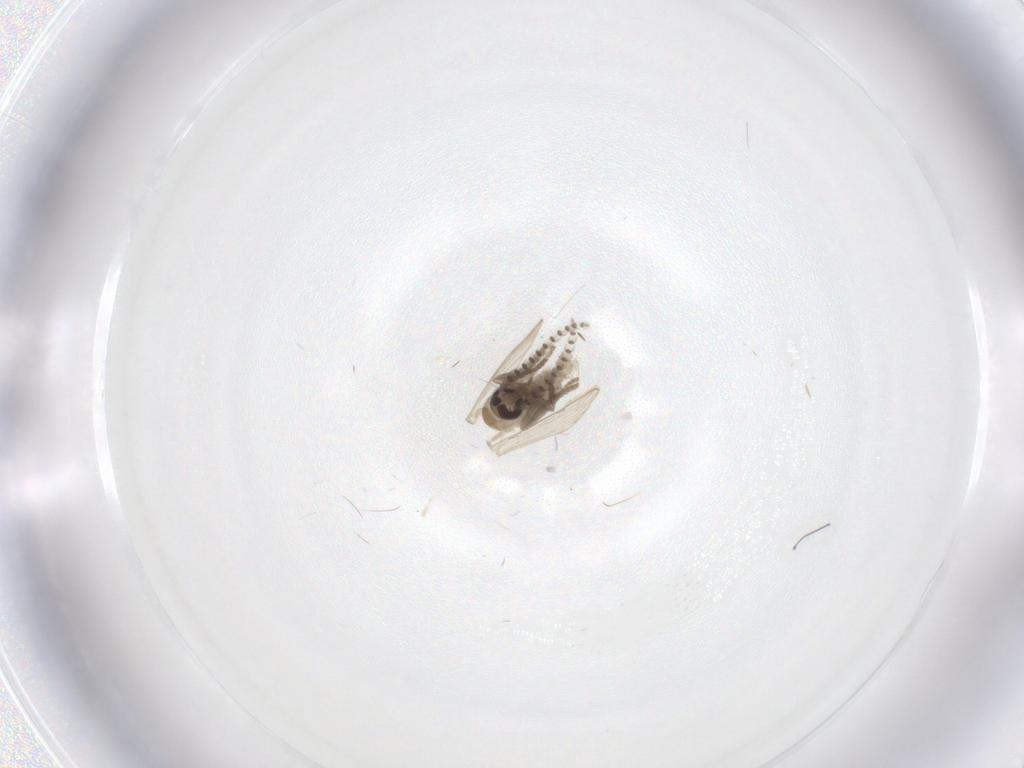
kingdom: Animalia
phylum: Arthropoda
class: Insecta
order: Diptera
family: Psychodidae
